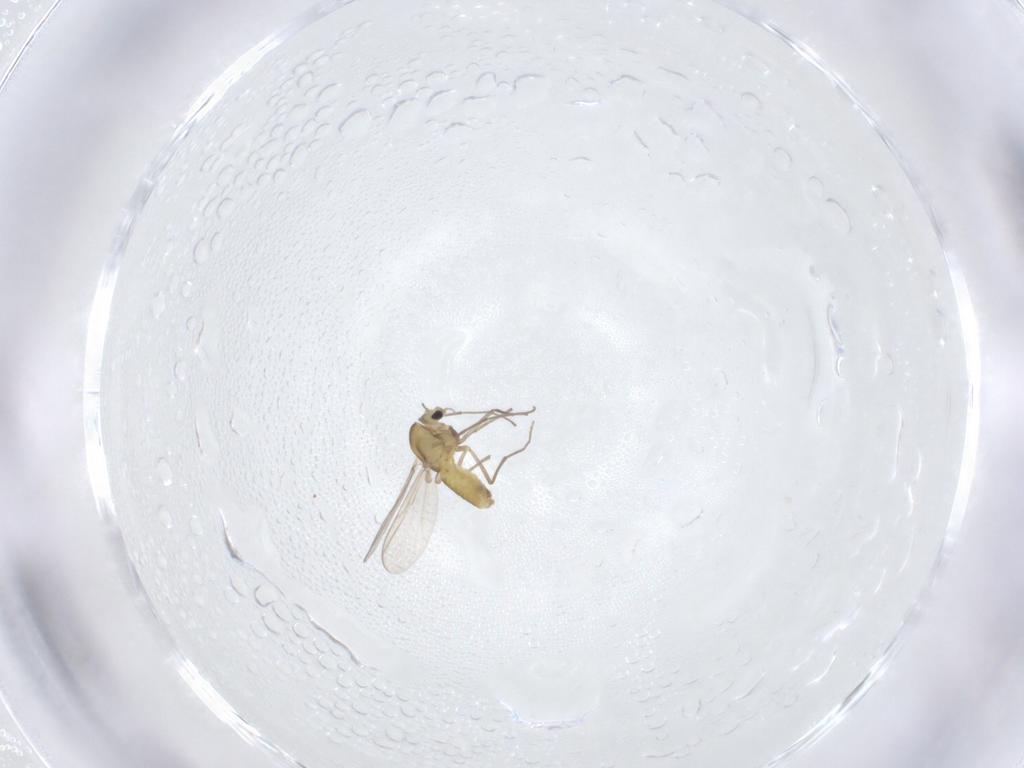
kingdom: Animalia
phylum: Arthropoda
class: Insecta
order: Diptera
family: Chironomidae
